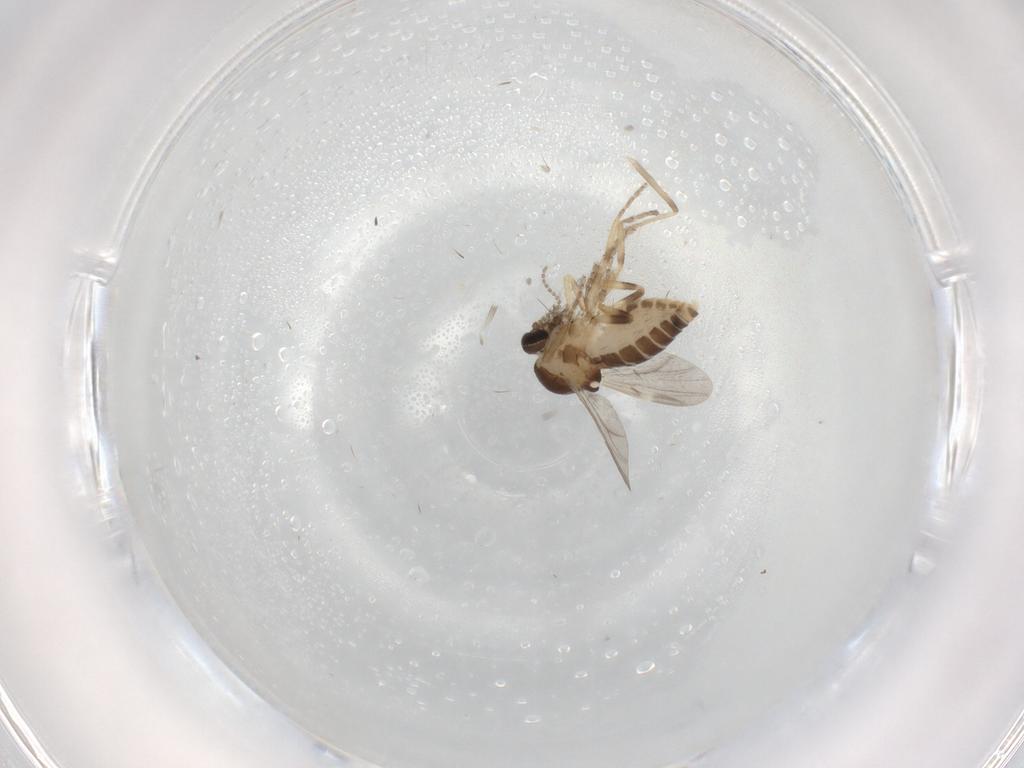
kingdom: Animalia
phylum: Arthropoda
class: Insecta
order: Diptera
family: Ceratopogonidae
